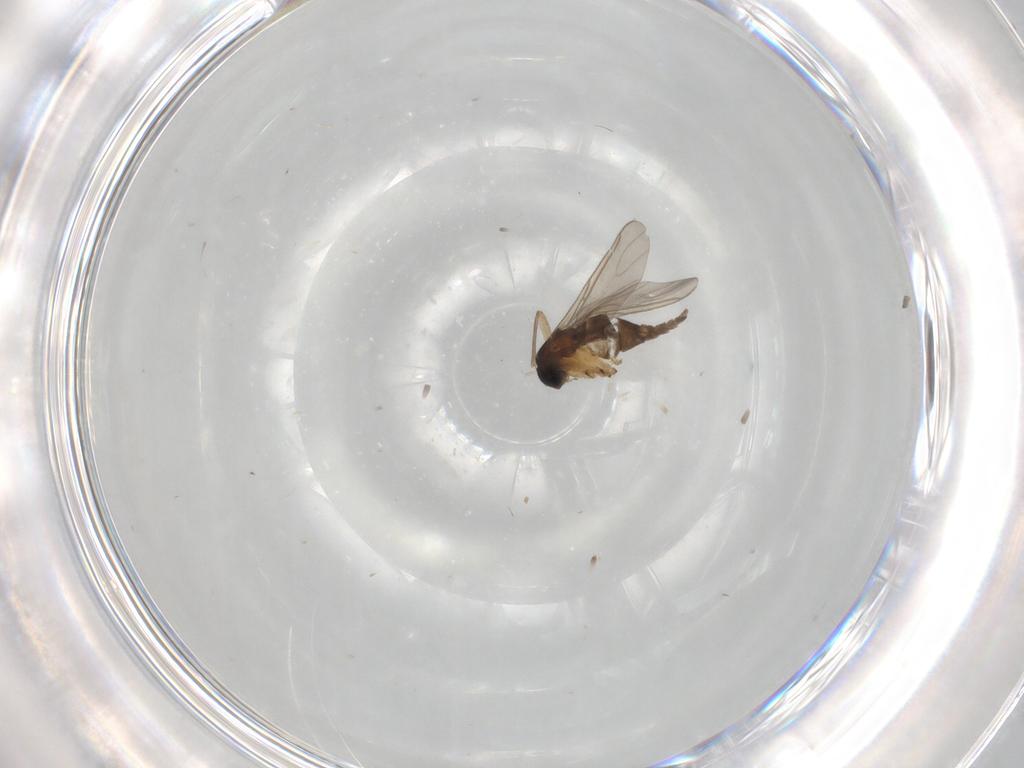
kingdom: Animalia
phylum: Arthropoda
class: Insecta
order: Diptera
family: Sciaridae
